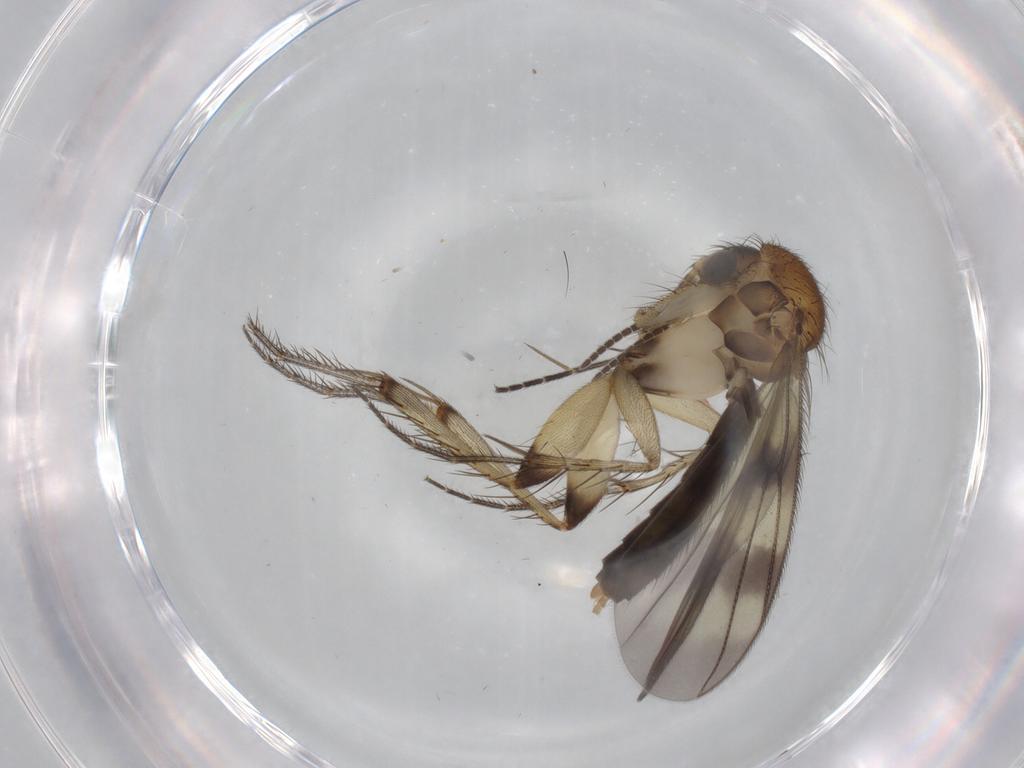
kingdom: Animalia
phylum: Arthropoda
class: Insecta
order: Diptera
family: Mycetophilidae
